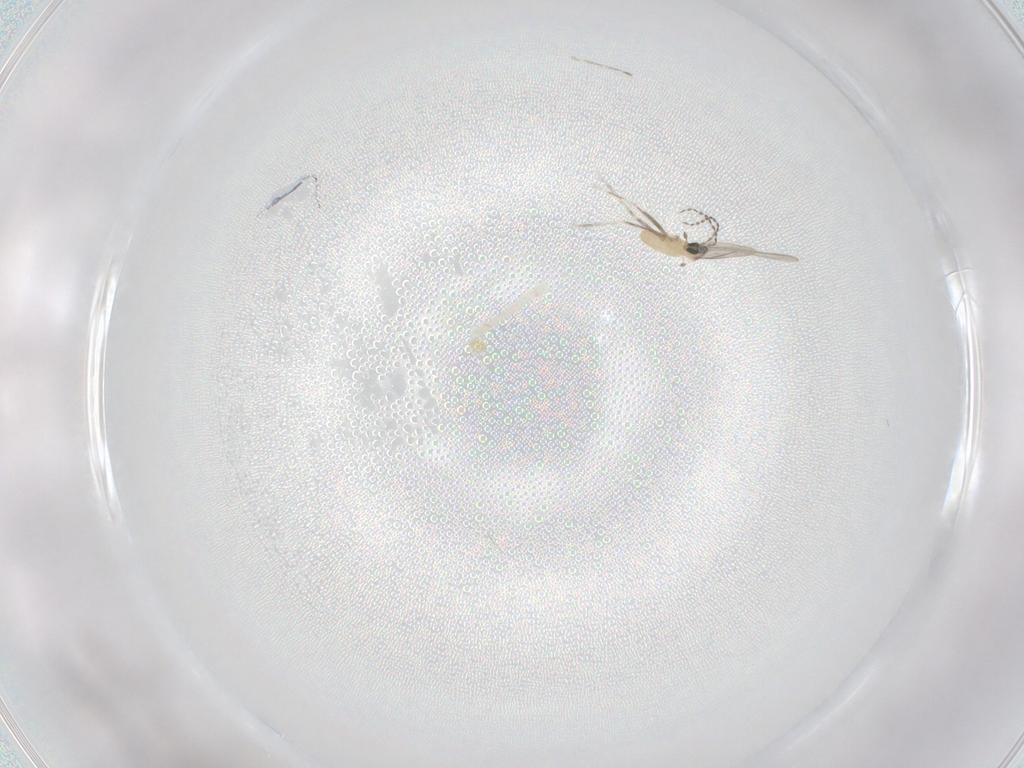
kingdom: Animalia
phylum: Arthropoda
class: Insecta
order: Diptera
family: Cecidomyiidae
